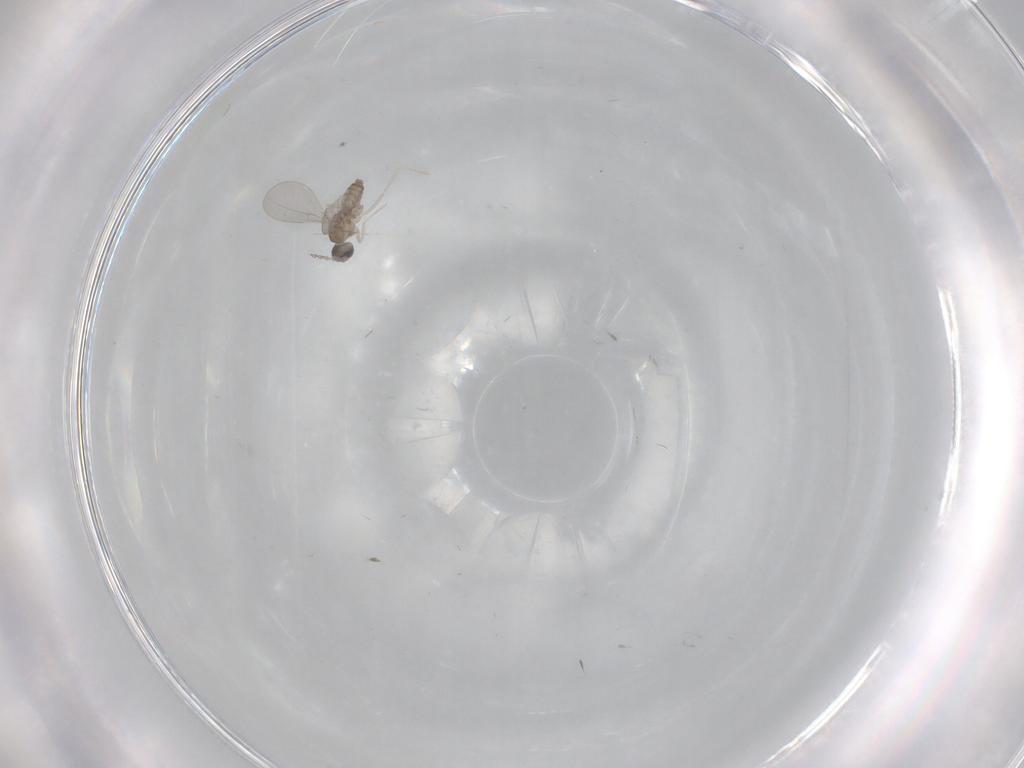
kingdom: Animalia
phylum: Arthropoda
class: Insecta
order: Diptera
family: Cecidomyiidae
